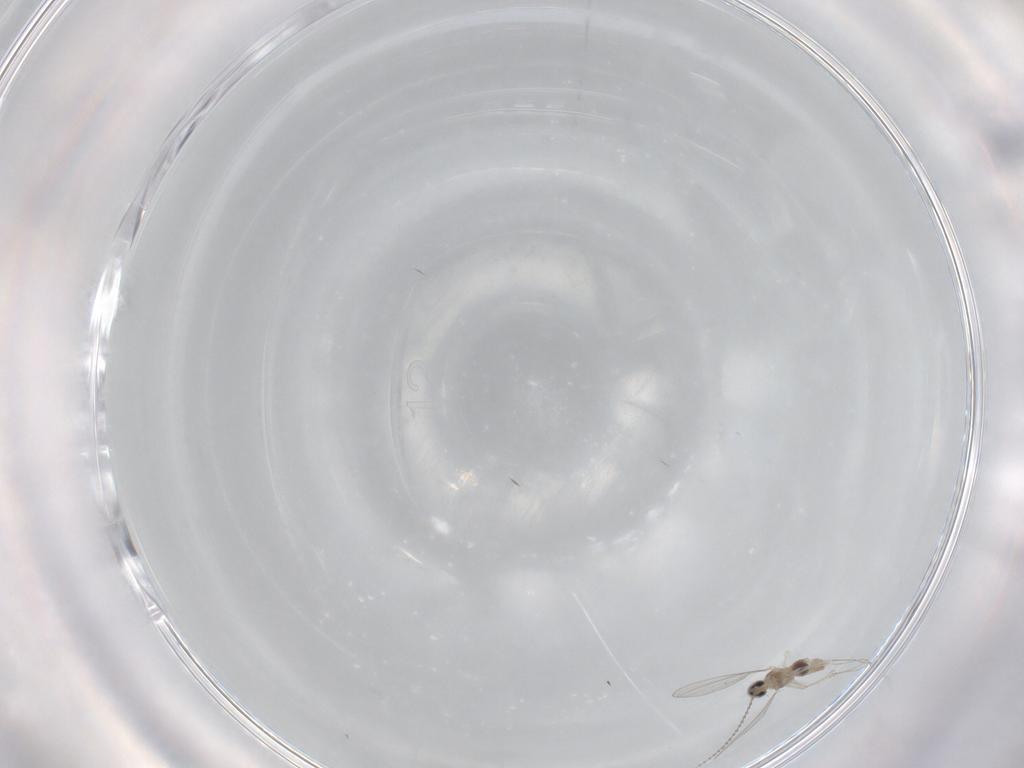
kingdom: Animalia
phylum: Arthropoda
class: Insecta
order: Diptera
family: Cecidomyiidae
